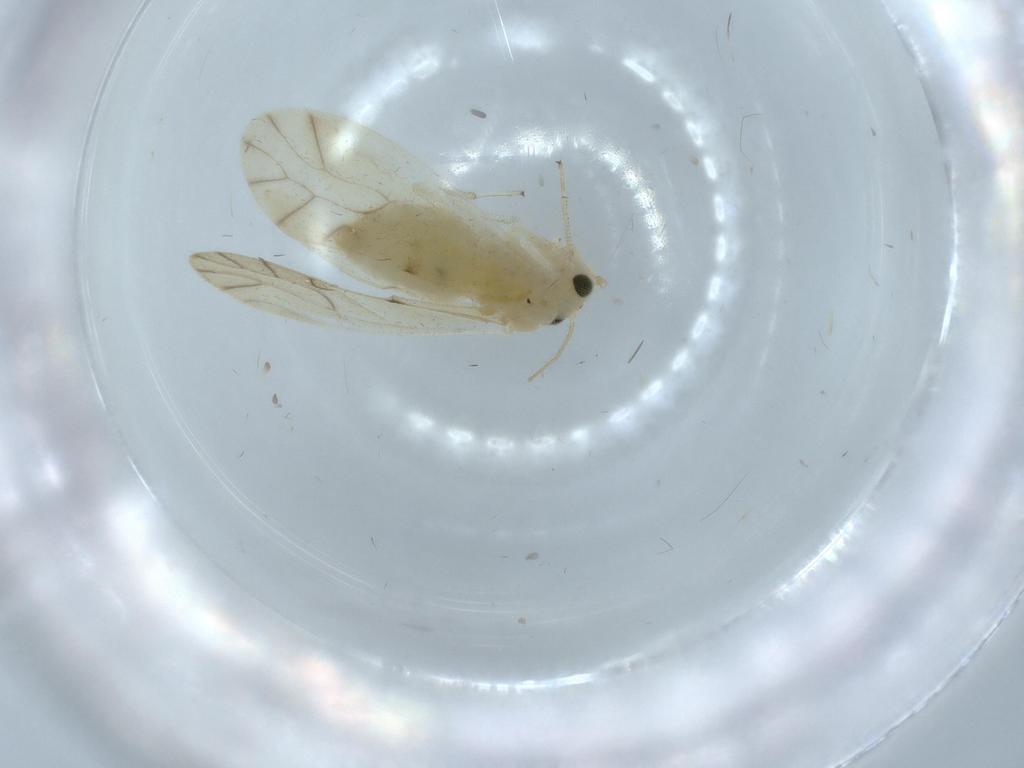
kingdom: Animalia
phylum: Arthropoda
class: Insecta
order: Psocodea
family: Caeciliusidae
